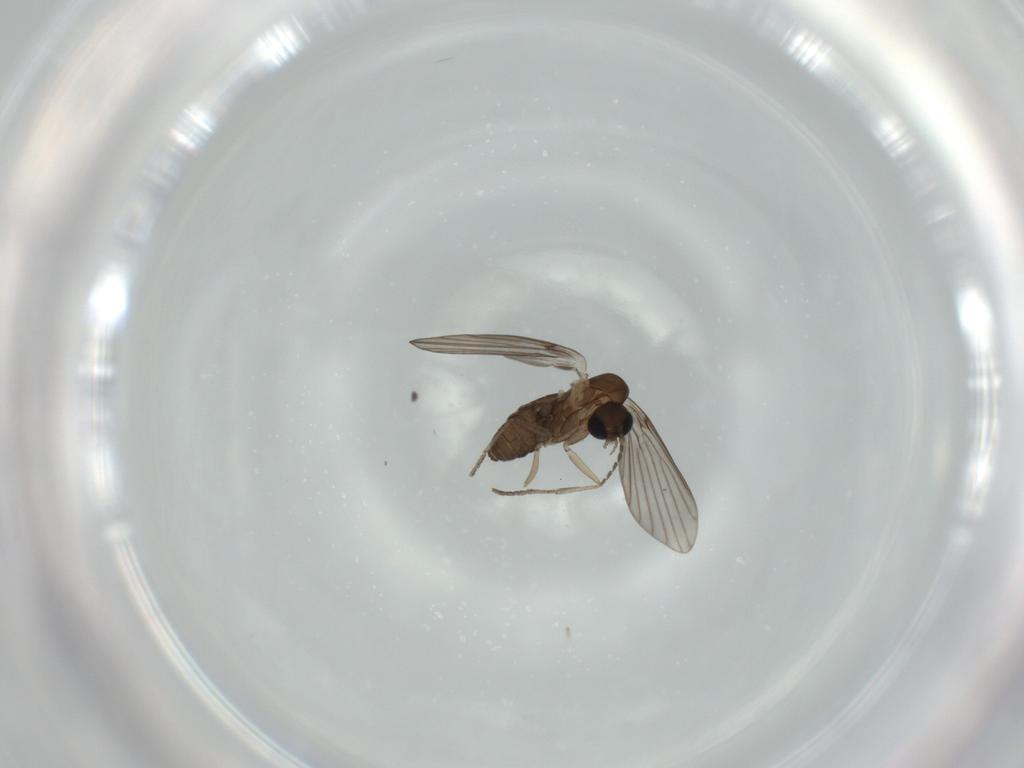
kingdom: Animalia
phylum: Arthropoda
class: Insecta
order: Diptera
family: Psychodidae
